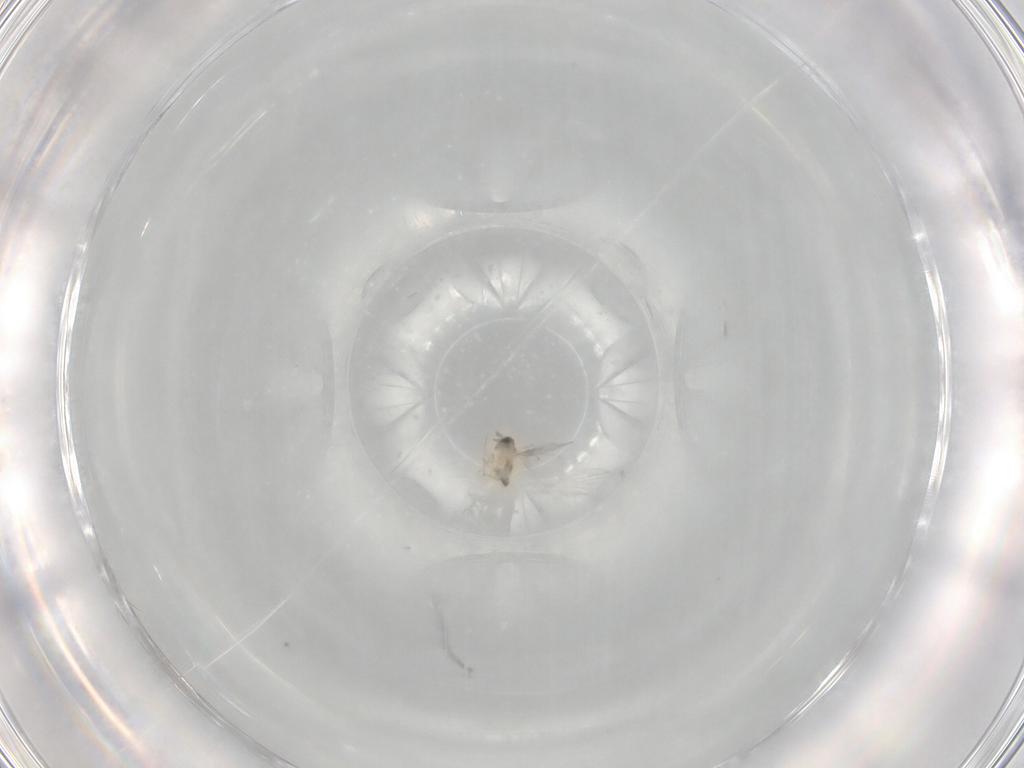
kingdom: Animalia
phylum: Arthropoda
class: Insecta
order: Hymenoptera
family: Trichogrammatidae
